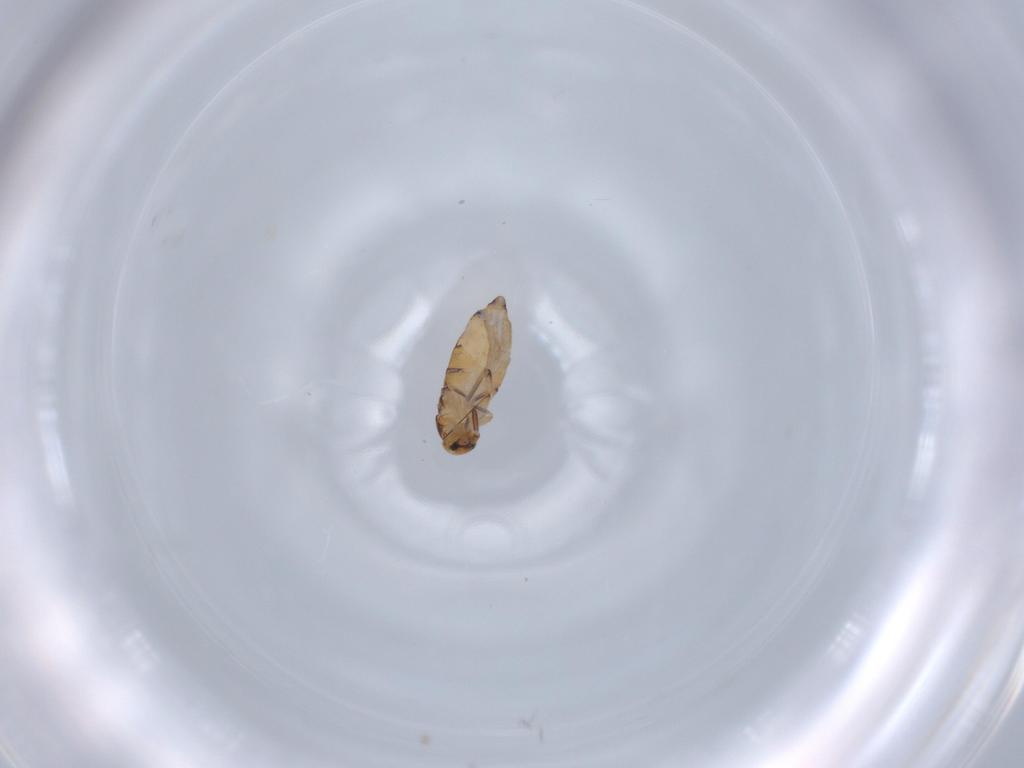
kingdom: Animalia
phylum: Arthropoda
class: Collembola
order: Entomobryomorpha
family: Entomobryidae
